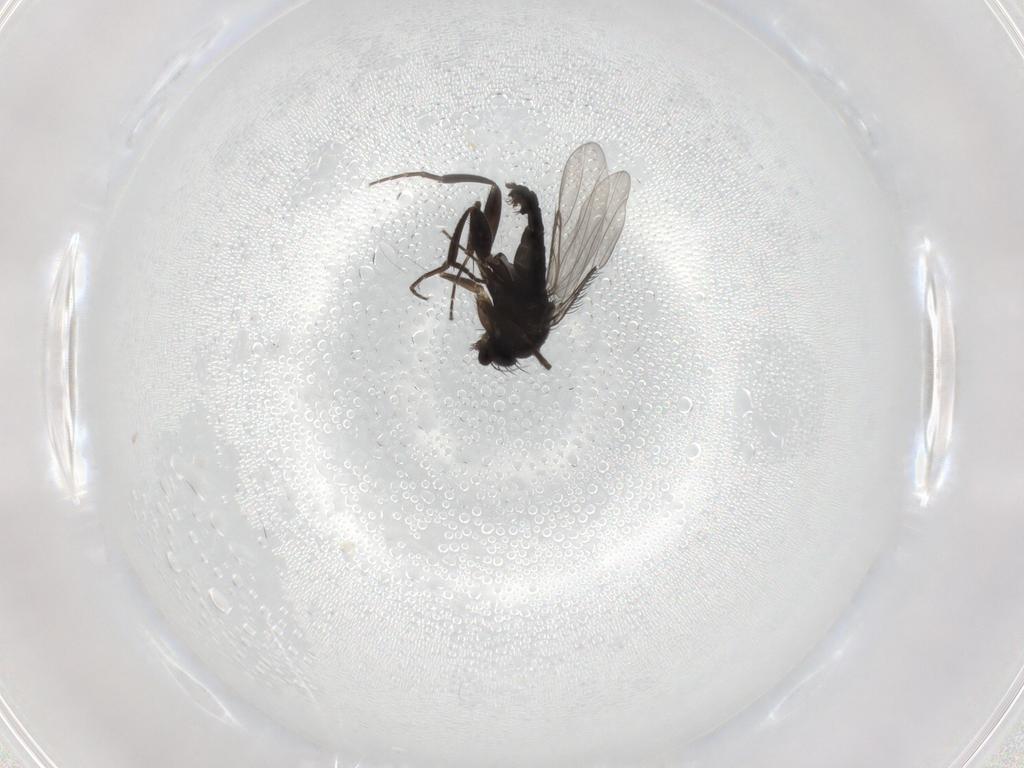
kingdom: Animalia
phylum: Arthropoda
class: Insecta
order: Diptera
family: Phoridae
